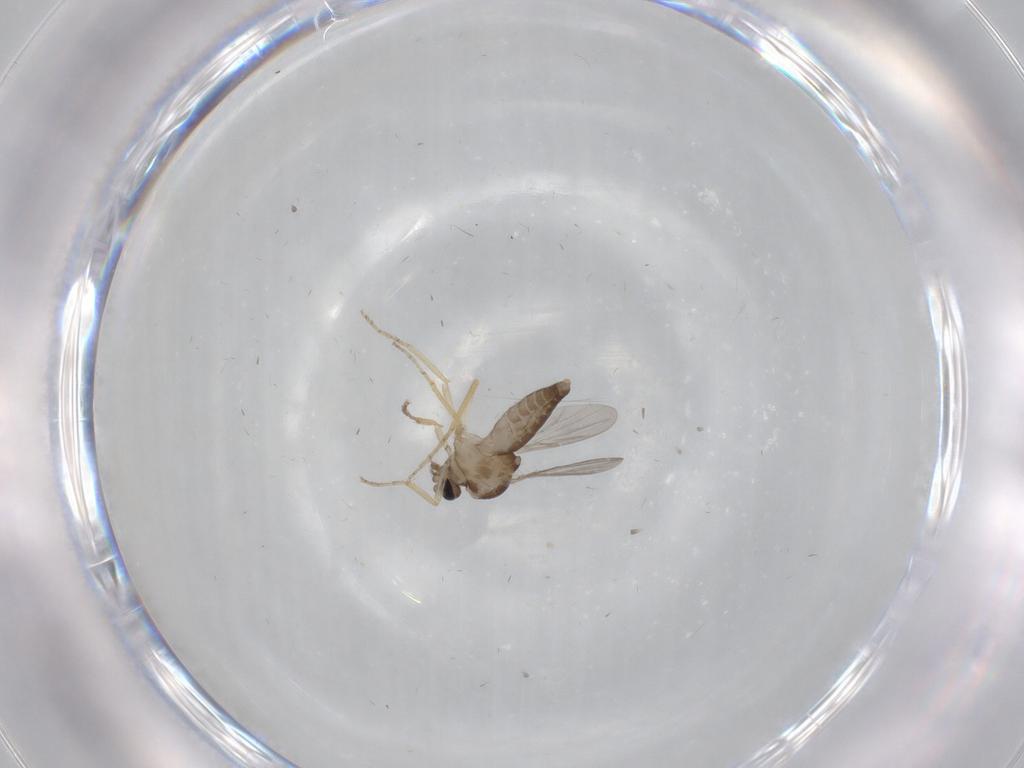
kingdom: Animalia
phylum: Arthropoda
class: Insecta
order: Diptera
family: Ceratopogonidae
